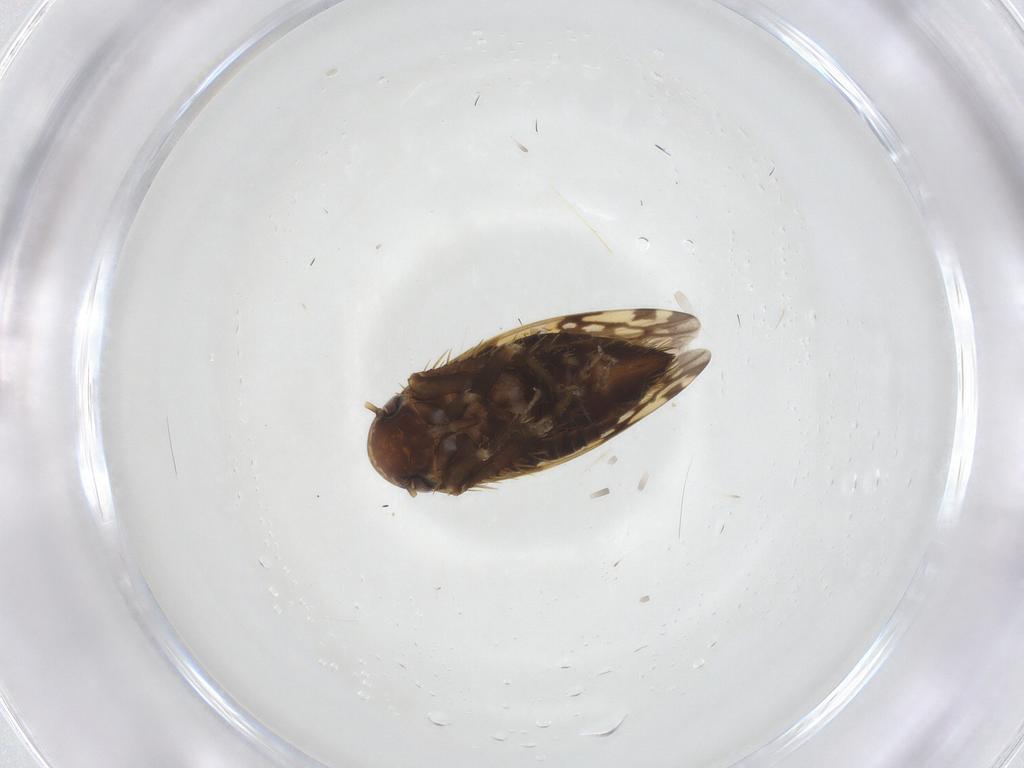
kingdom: Animalia
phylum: Arthropoda
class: Insecta
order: Hemiptera
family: Cicadellidae
